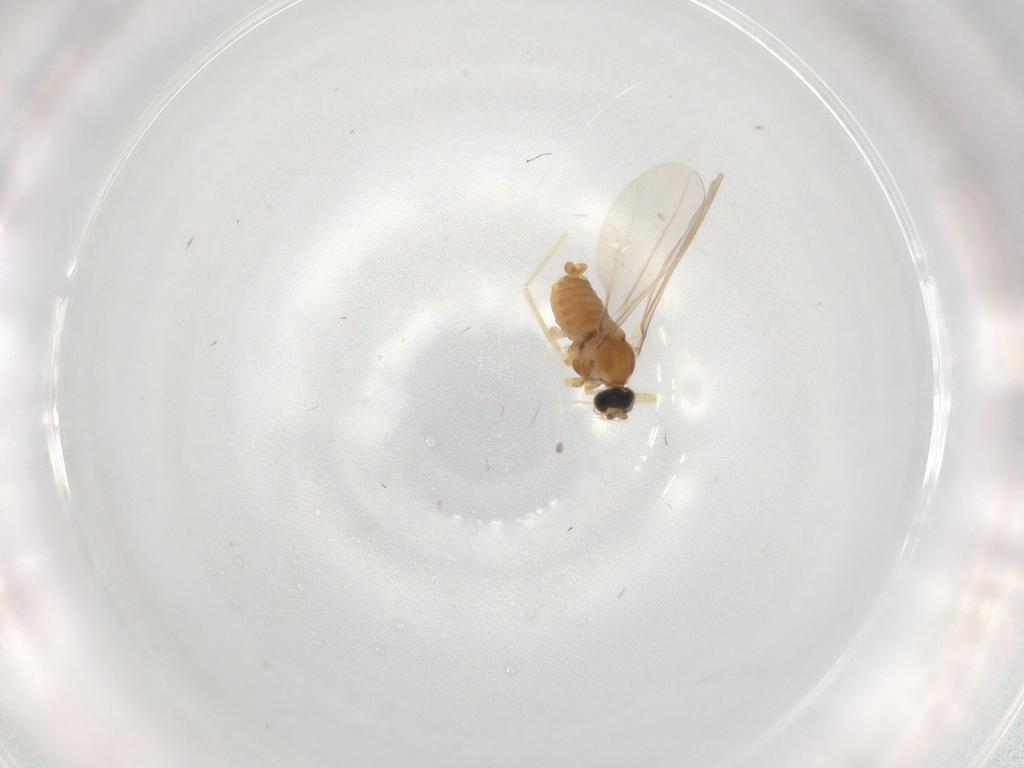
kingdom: Animalia
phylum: Arthropoda
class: Insecta
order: Diptera
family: Cecidomyiidae
